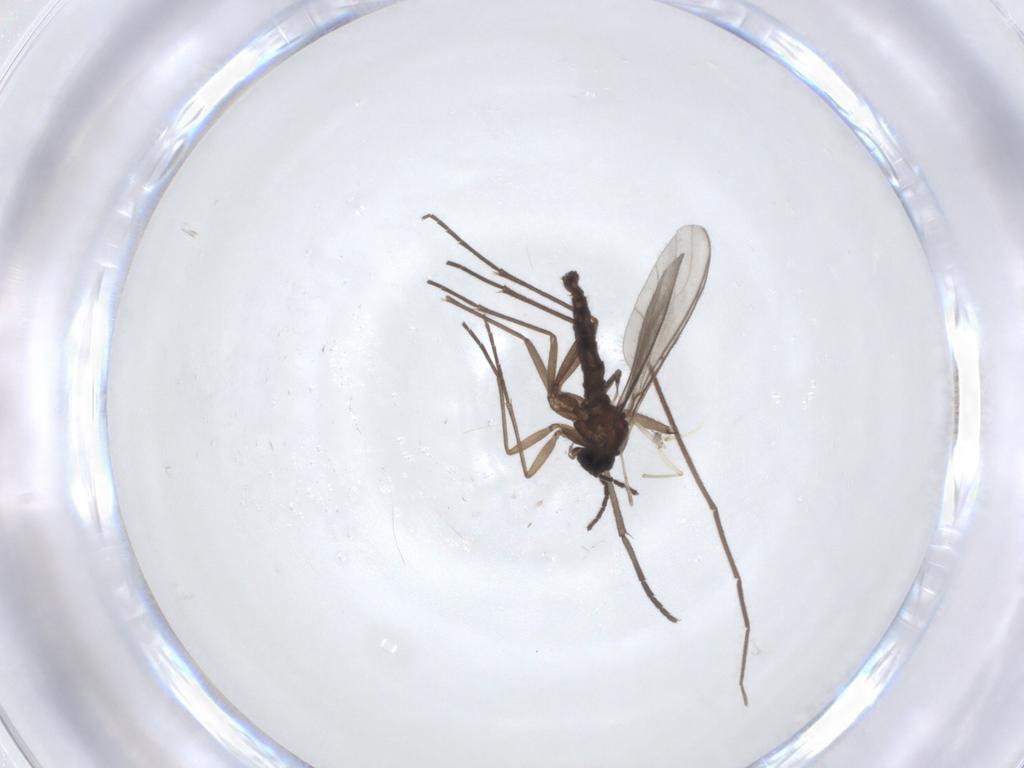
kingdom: Animalia
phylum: Arthropoda
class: Insecta
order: Diptera
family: Sciaridae
